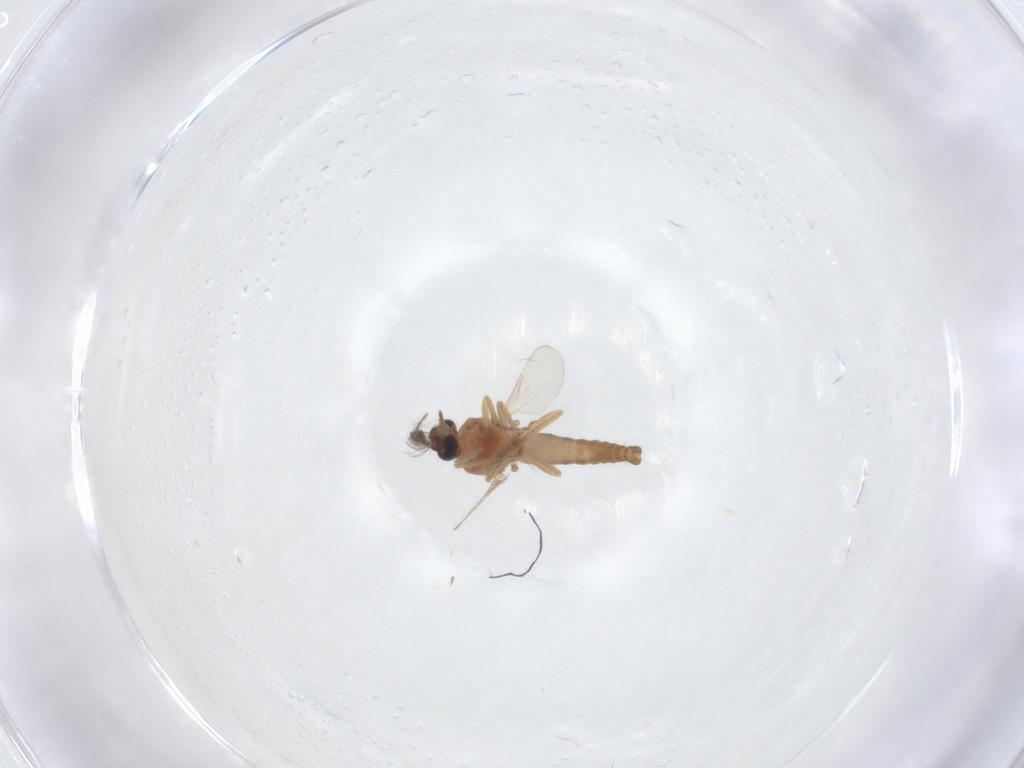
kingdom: Animalia
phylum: Arthropoda
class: Insecta
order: Diptera
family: Ceratopogonidae
